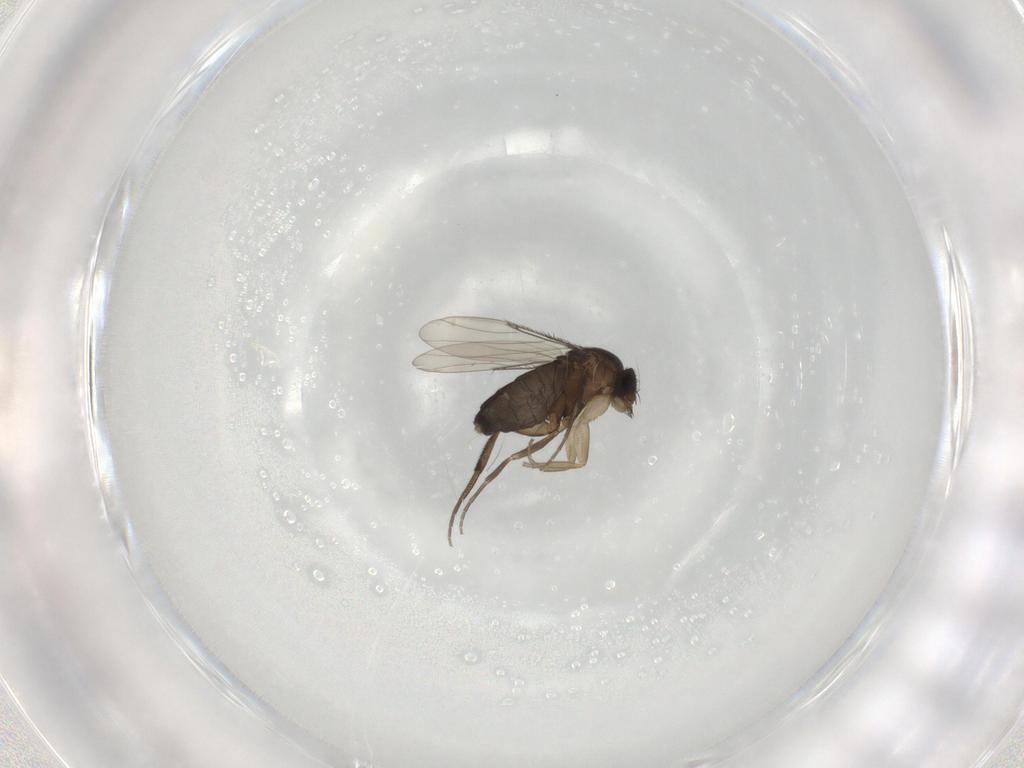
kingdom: Animalia
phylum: Arthropoda
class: Insecta
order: Diptera
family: Phoridae
